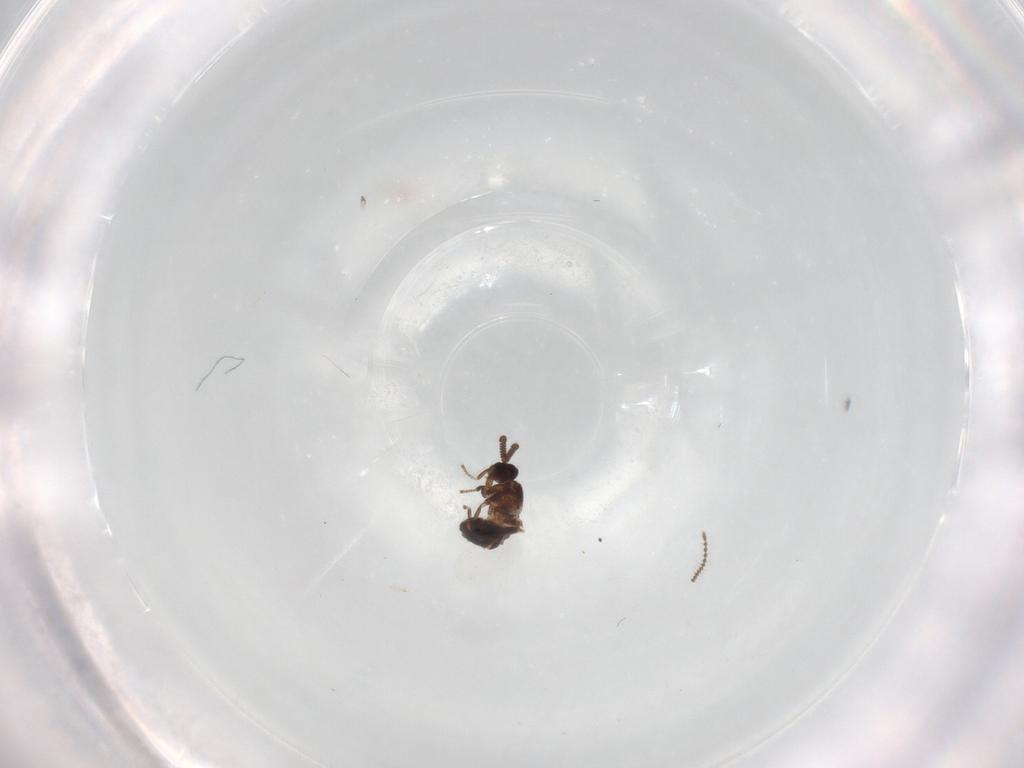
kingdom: Animalia
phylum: Arthropoda
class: Insecta
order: Diptera
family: Scatopsidae
